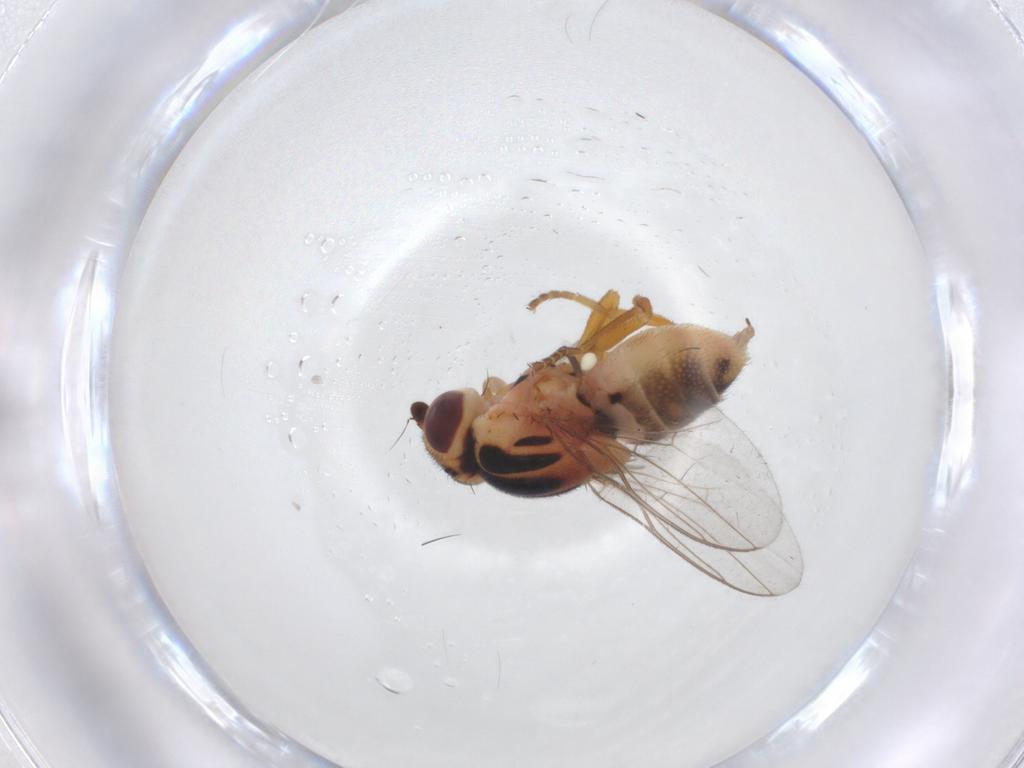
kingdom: Animalia
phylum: Arthropoda
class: Insecta
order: Diptera
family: Chloropidae
